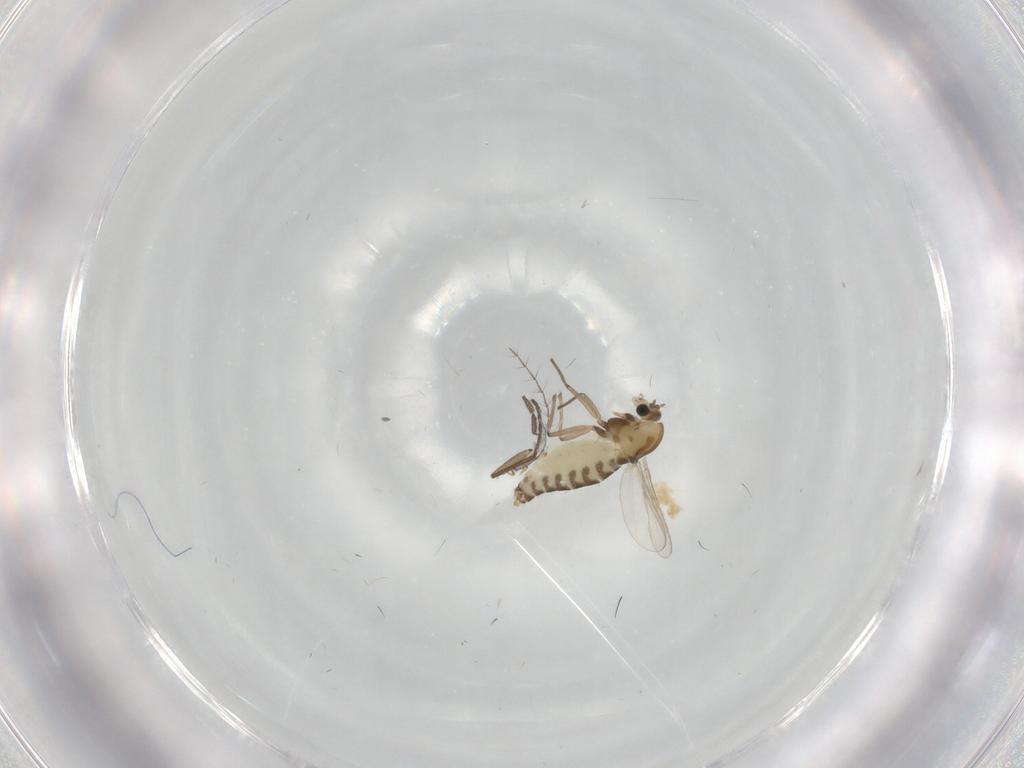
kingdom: Animalia
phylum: Arthropoda
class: Insecta
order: Diptera
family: Chironomidae
